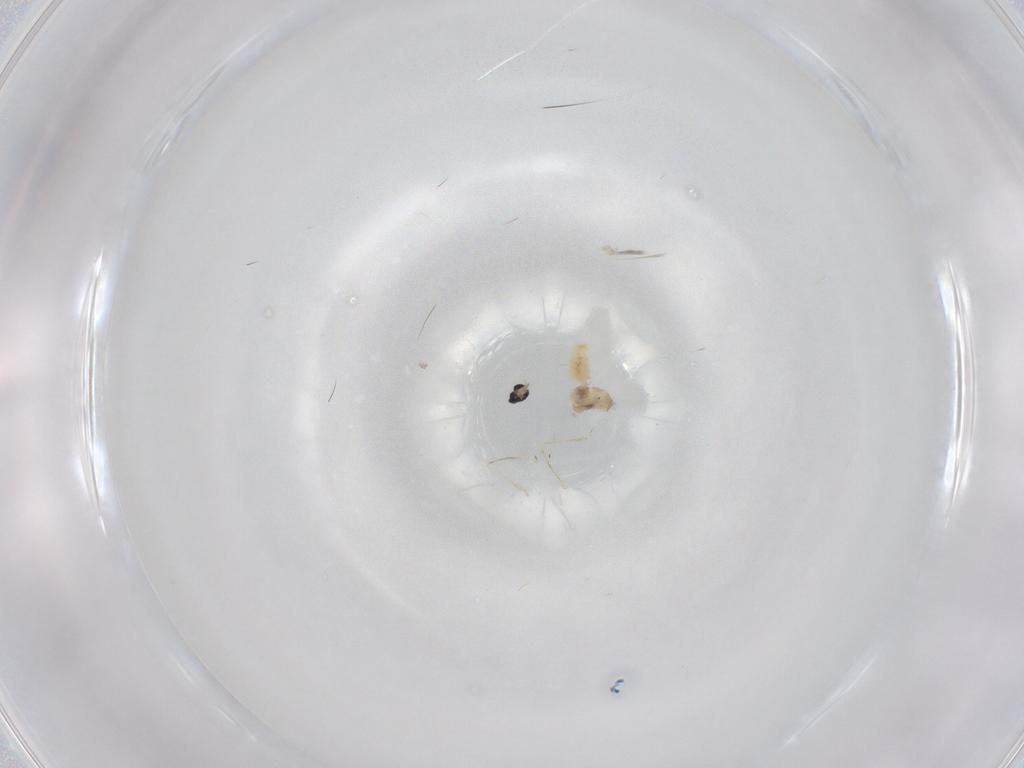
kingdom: Animalia
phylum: Arthropoda
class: Insecta
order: Diptera
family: Cecidomyiidae
